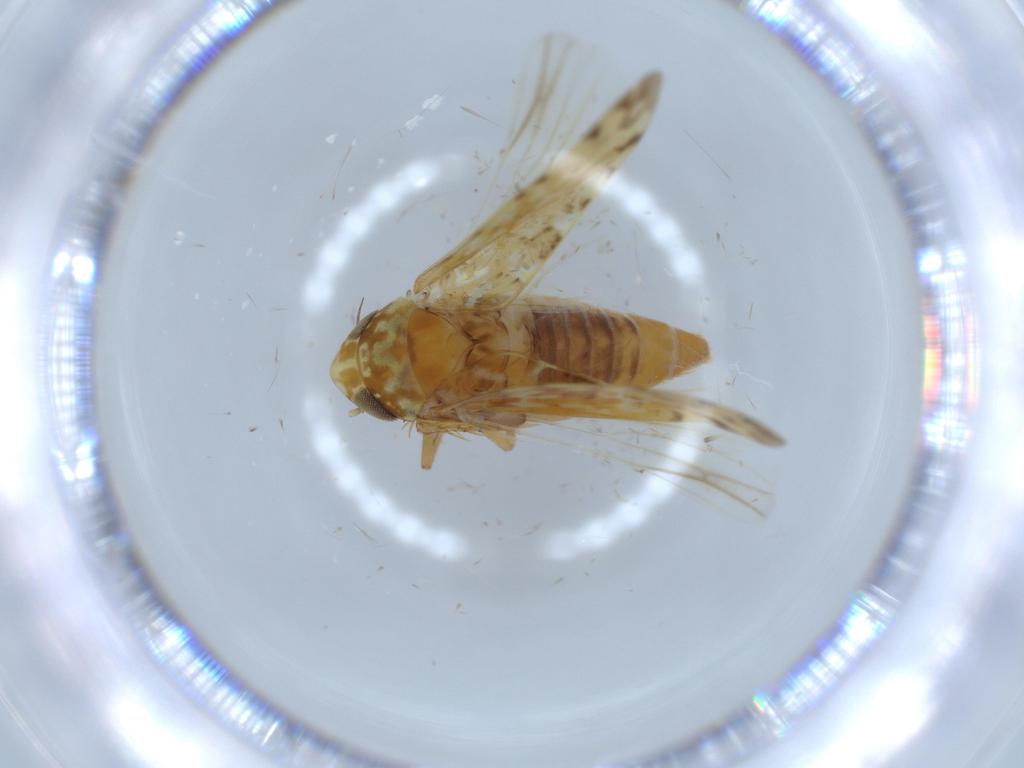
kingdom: Animalia
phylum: Arthropoda
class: Insecta
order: Hemiptera
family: Cicadellidae
